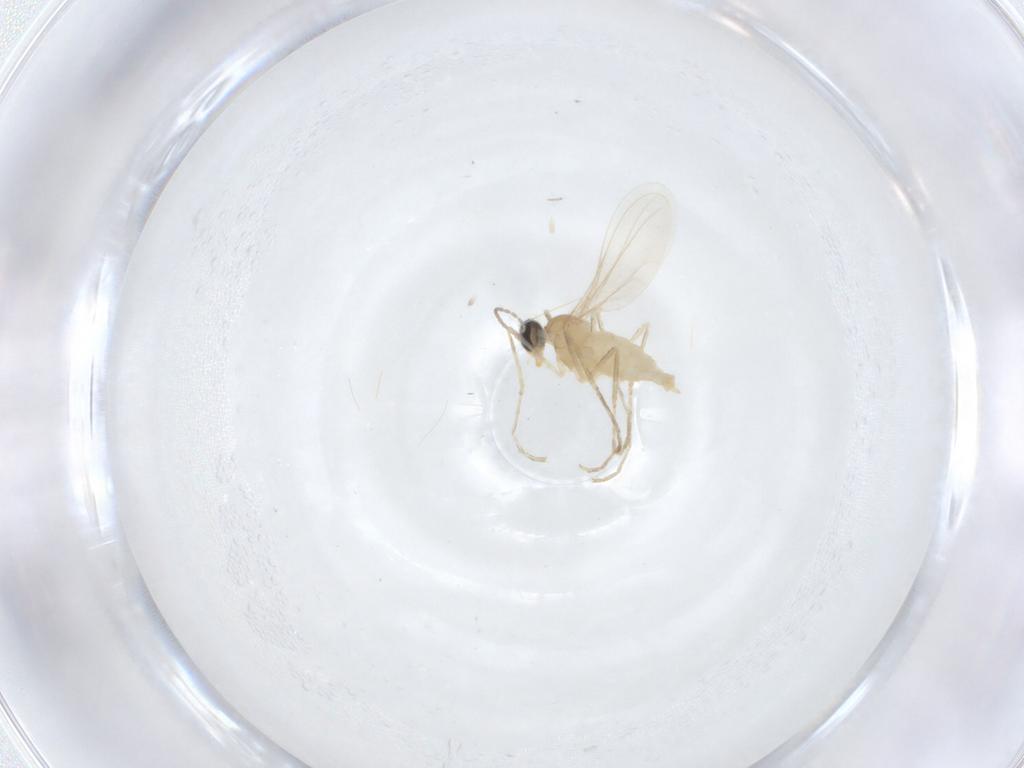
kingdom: Animalia
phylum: Arthropoda
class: Insecta
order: Diptera
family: Cecidomyiidae
